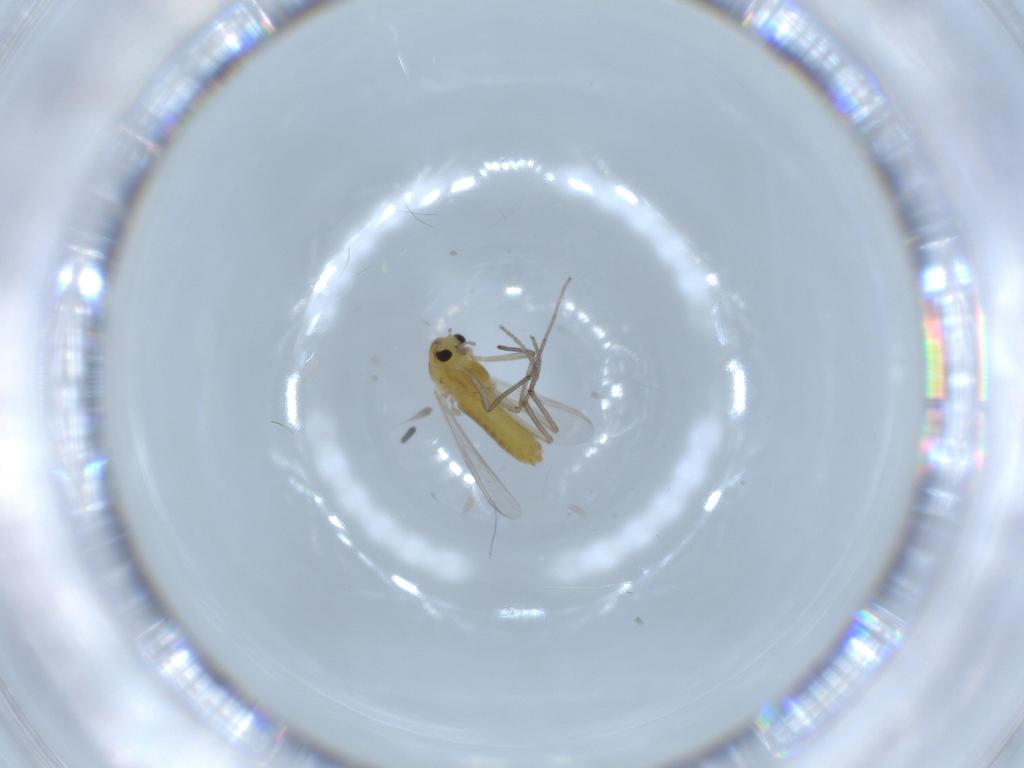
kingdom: Animalia
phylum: Arthropoda
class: Insecta
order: Diptera
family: Chironomidae
